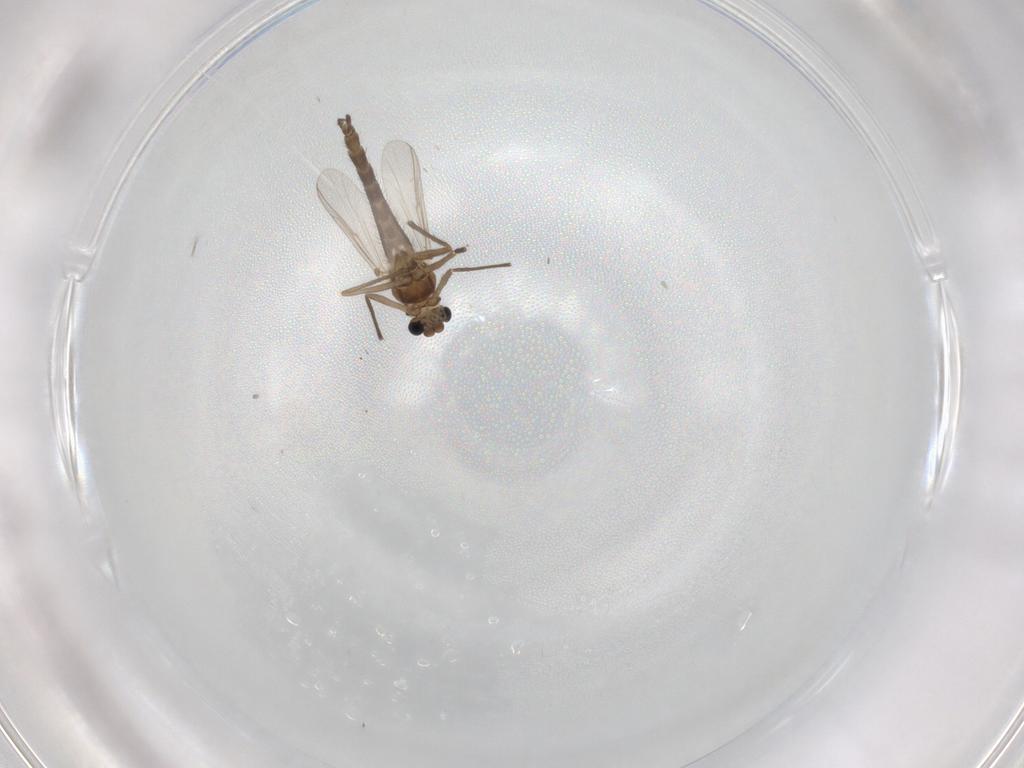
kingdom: Animalia
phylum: Arthropoda
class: Insecta
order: Diptera
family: Chironomidae
